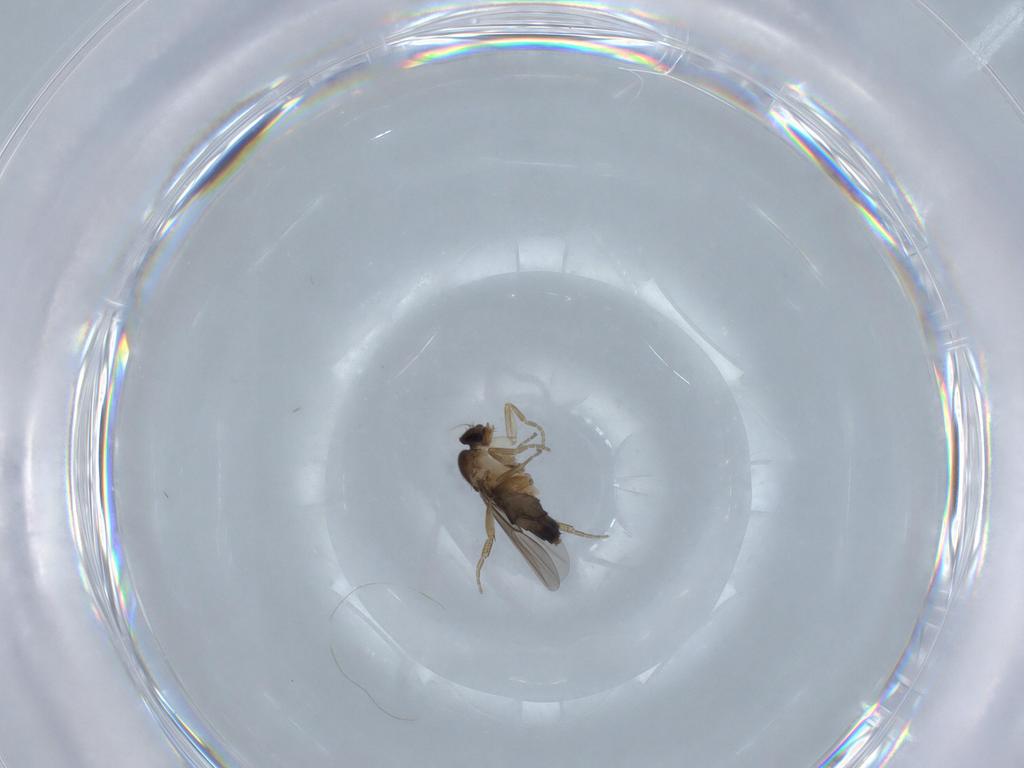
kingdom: Animalia
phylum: Arthropoda
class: Insecta
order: Diptera
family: Phoridae
